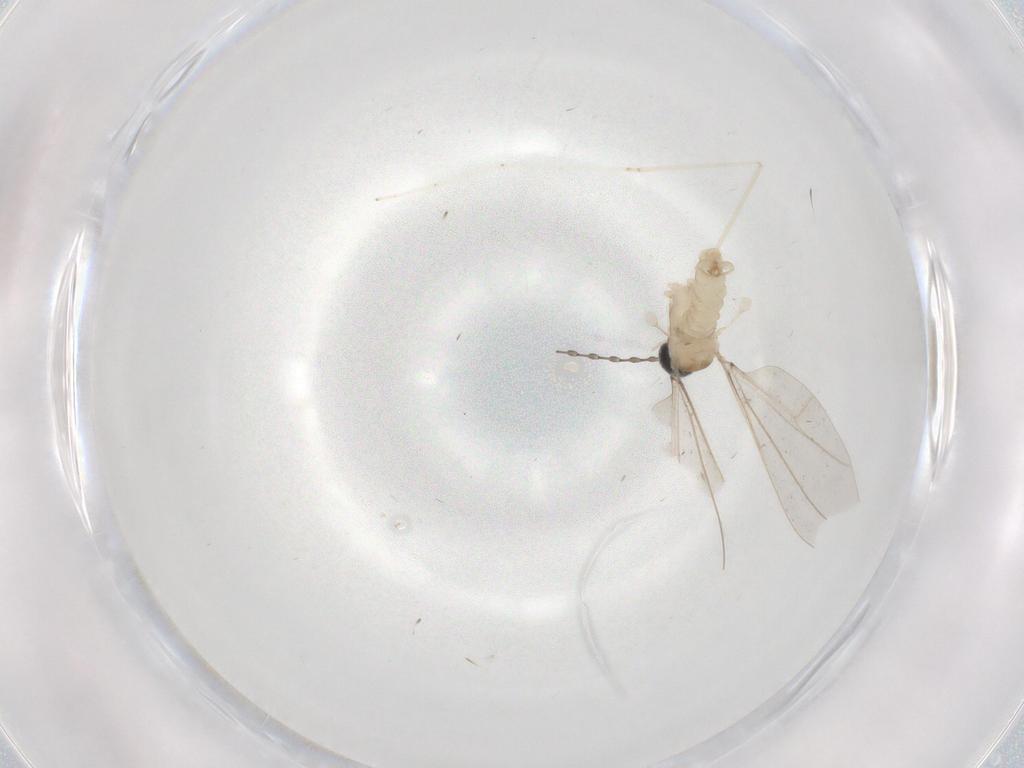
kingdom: Animalia
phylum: Arthropoda
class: Insecta
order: Diptera
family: Cecidomyiidae
